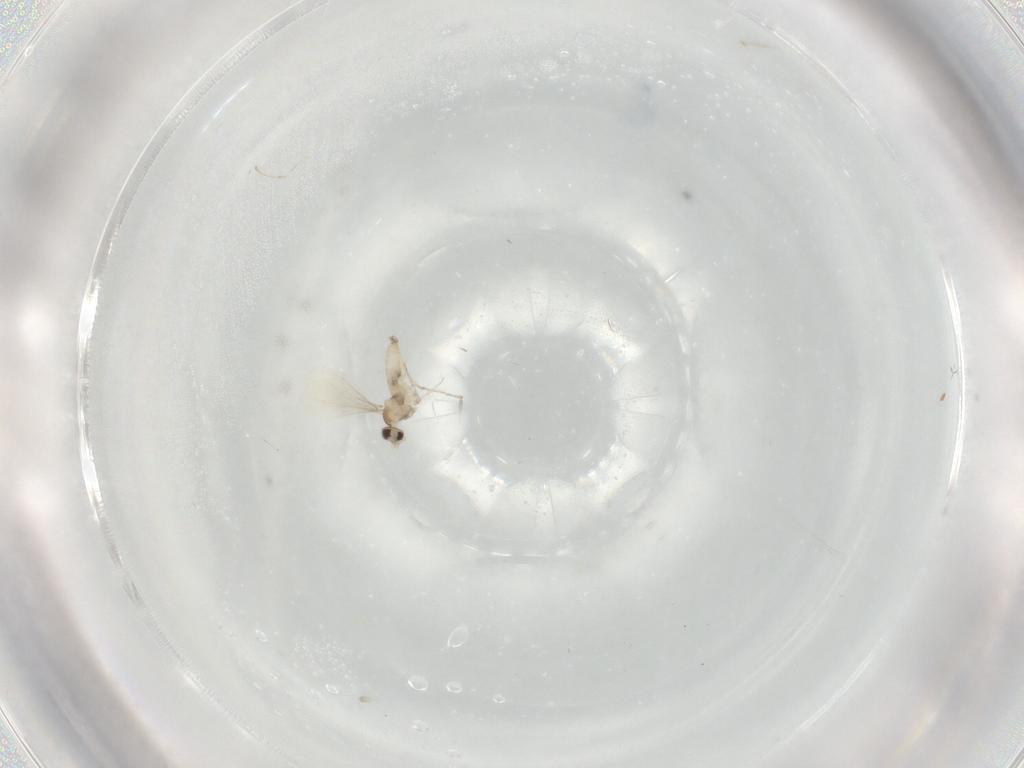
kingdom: Animalia
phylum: Arthropoda
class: Insecta
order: Diptera
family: Cecidomyiidae
